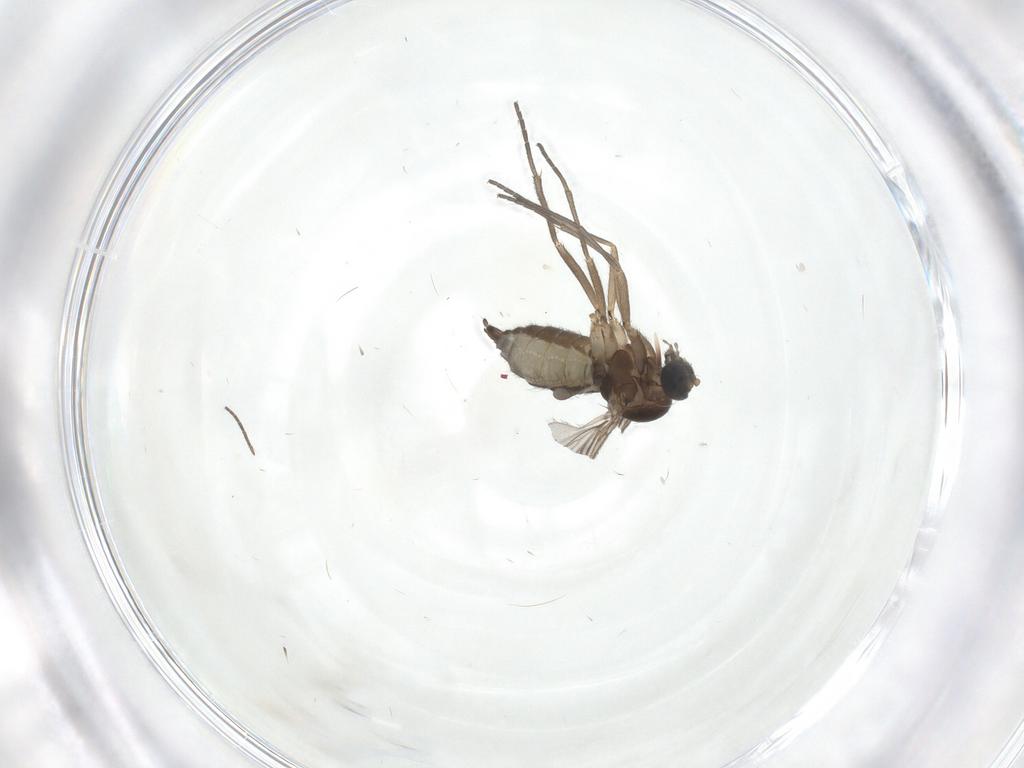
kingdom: Animalia
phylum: Arthropoda
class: Insecta
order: Diptera
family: Sciaridae
